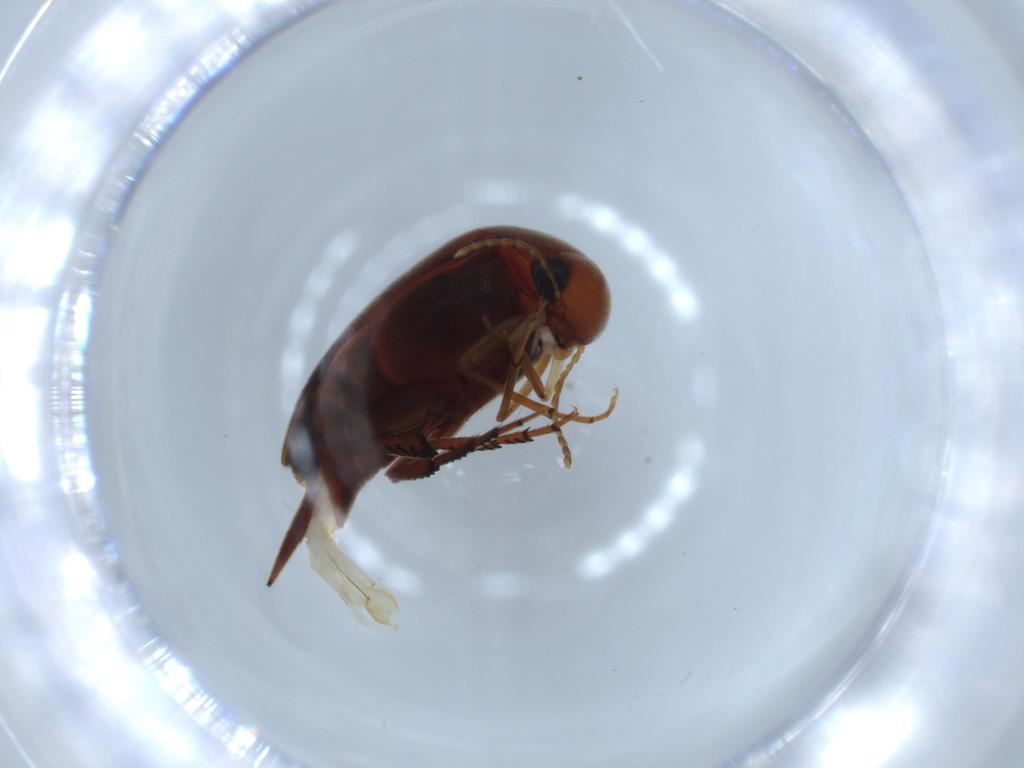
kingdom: Animalia
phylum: Arthropoda
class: Insecta
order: Coleoptera
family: Mordellidae
